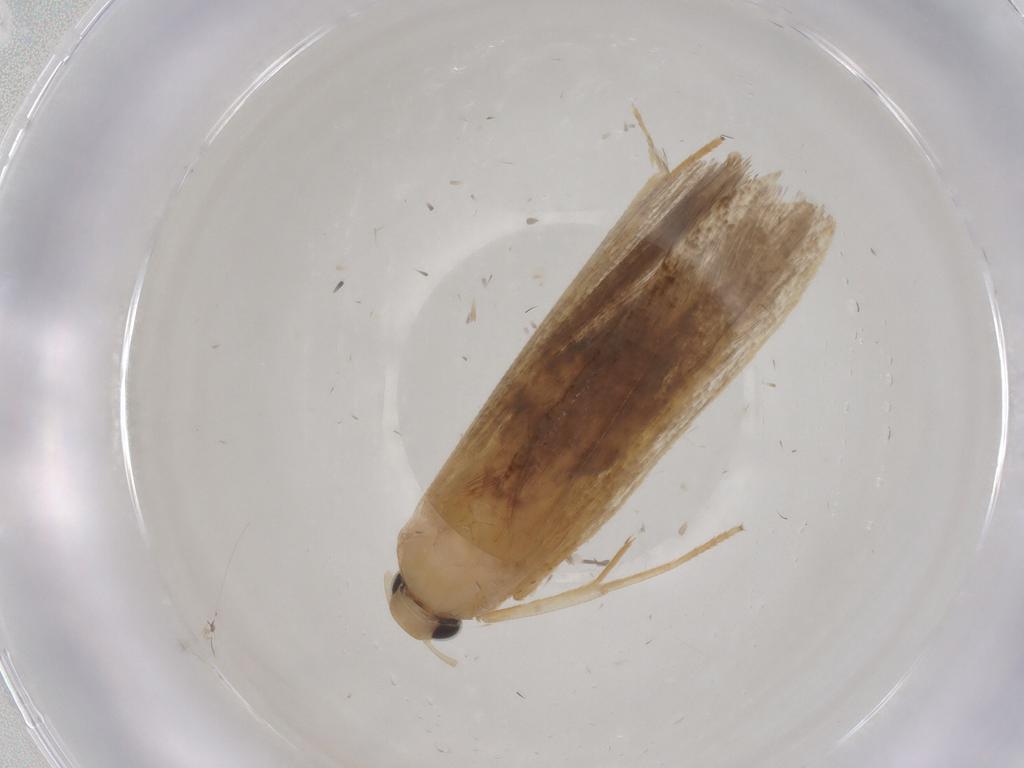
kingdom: Animalia
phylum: Arthropoda
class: Insecta
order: Lepidoptera
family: Gelechiidae
